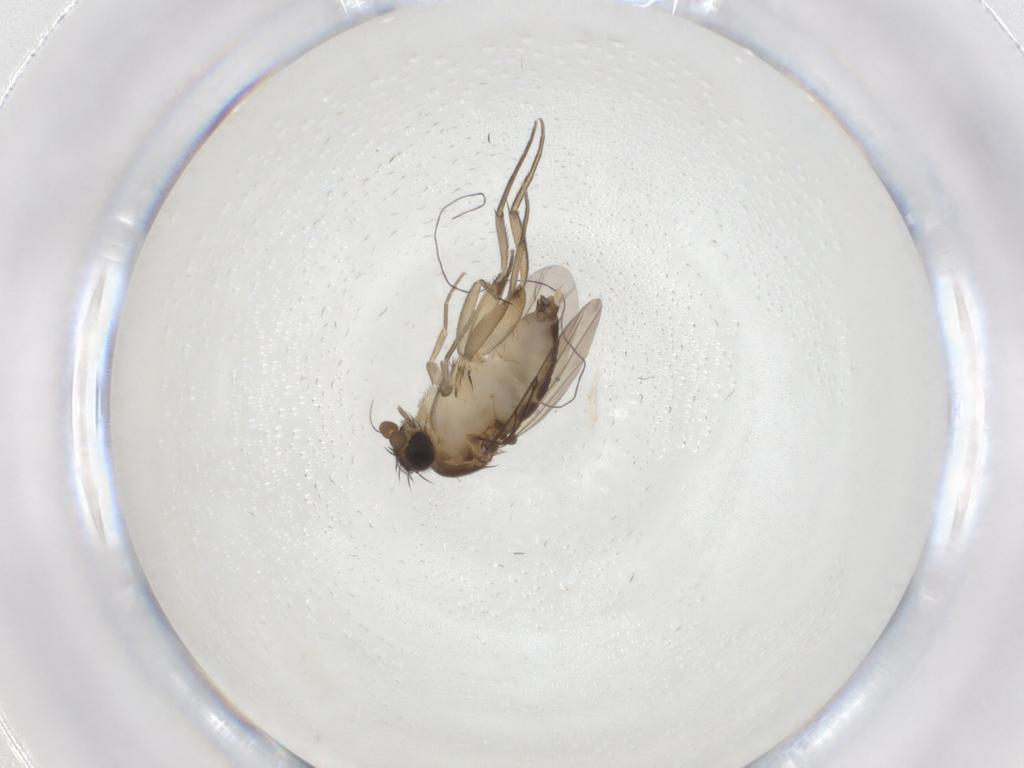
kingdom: Animalia
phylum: Arthropoda
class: Insecta
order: Diptera
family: Phoridae
